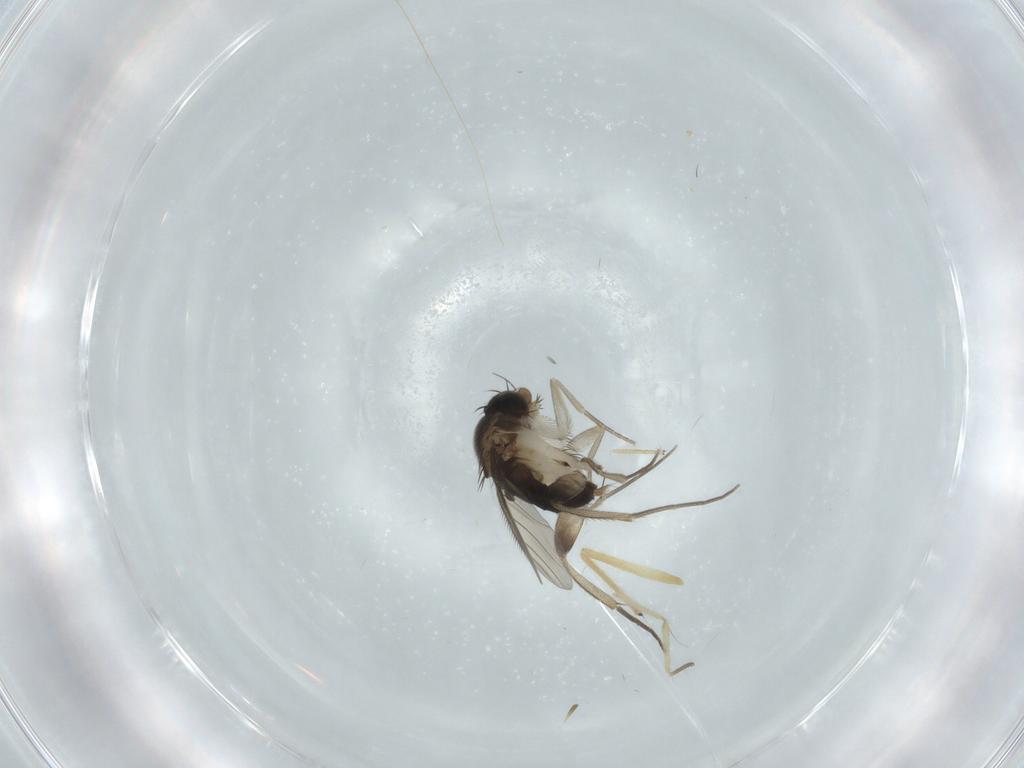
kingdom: Animalia
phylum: Arthropoda
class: Insecta
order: Diptera
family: Phoridae
